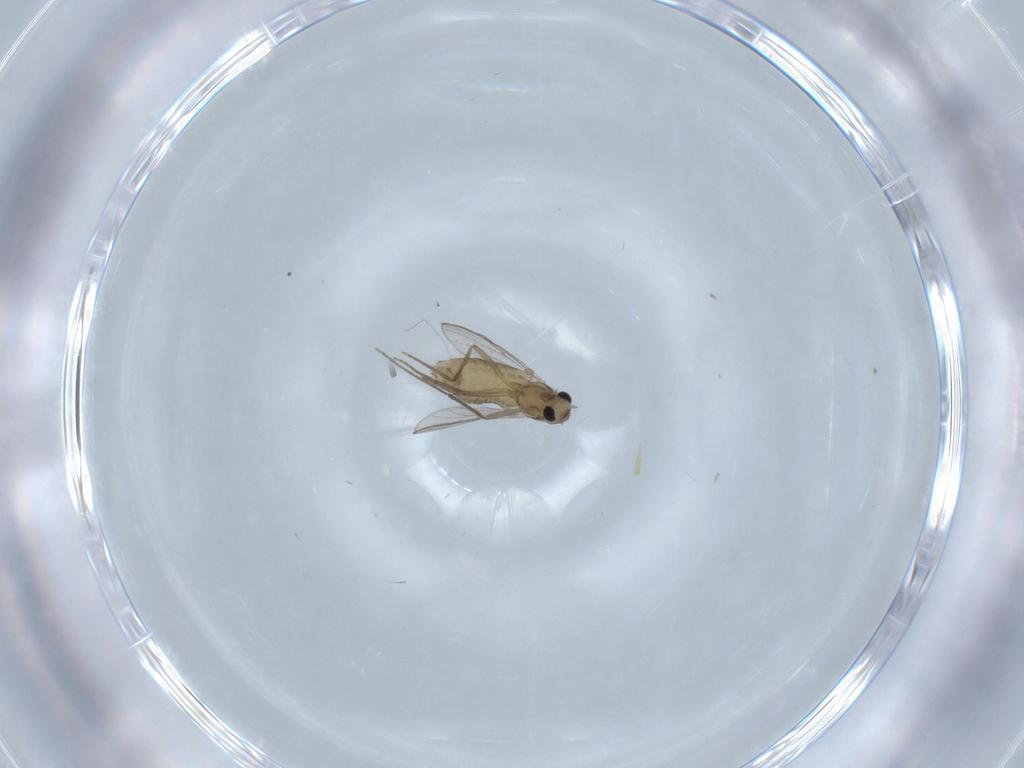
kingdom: Animalia
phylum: Arthropoda
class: Insecta
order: Diptera
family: Chironomidae
